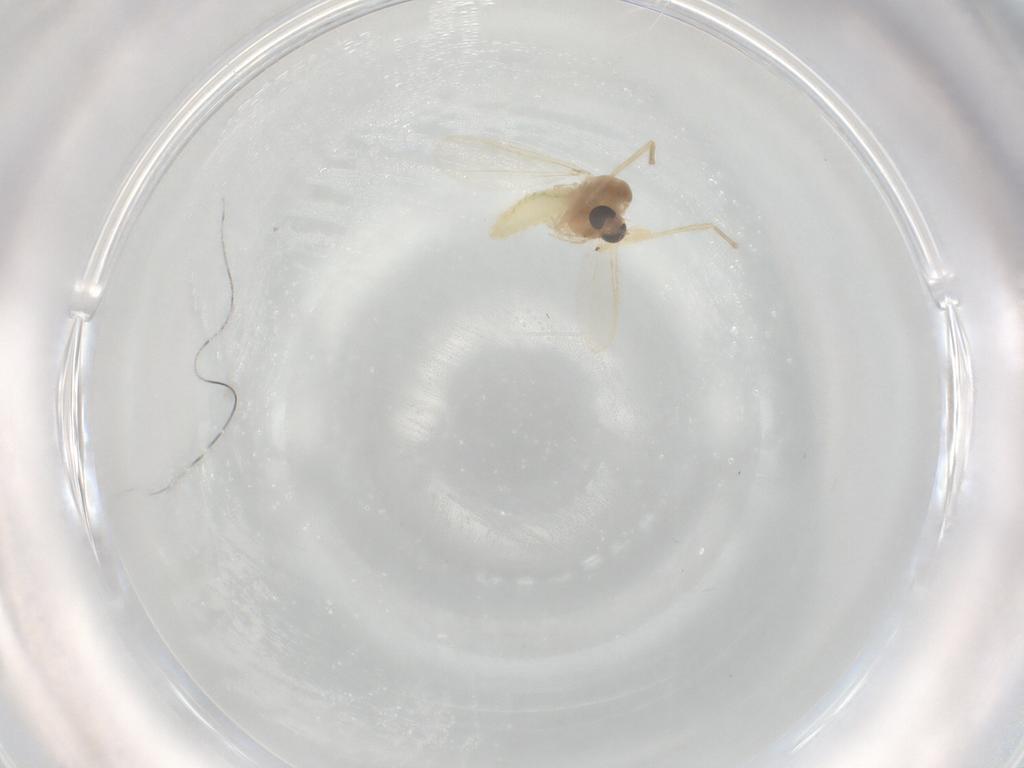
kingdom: Animalia
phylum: Arthropoda
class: Insecta
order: Diptera
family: Chironomidae
